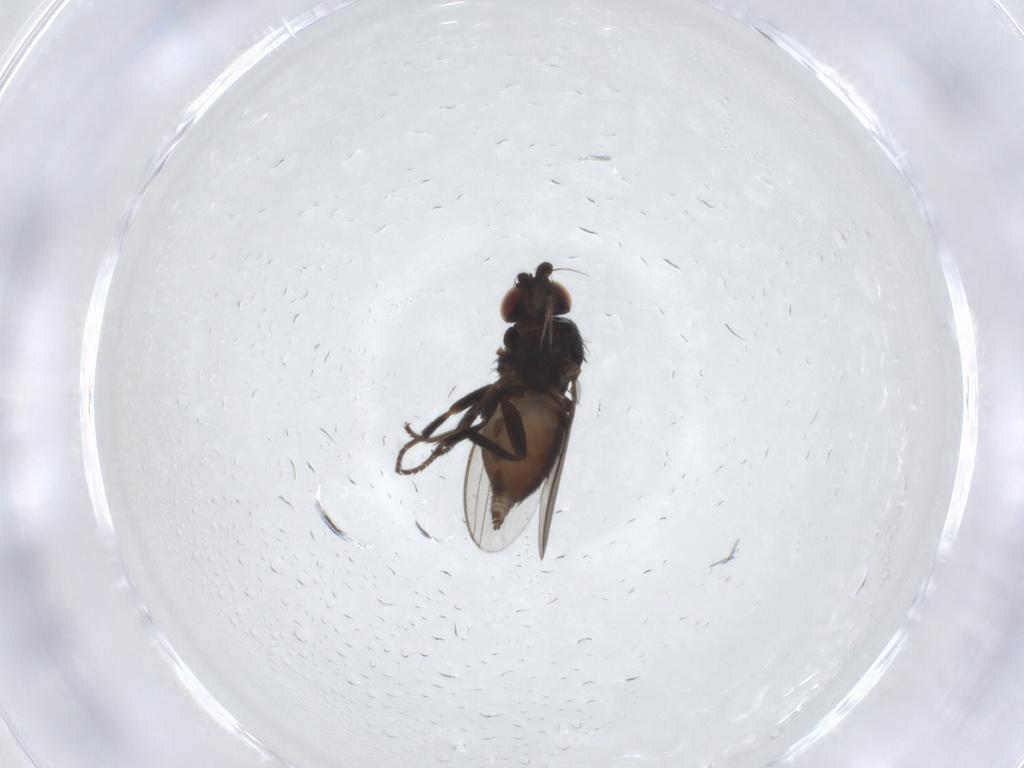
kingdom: Animalia
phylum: Arthropoda
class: Insecta
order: Diptera
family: Milichiidae
